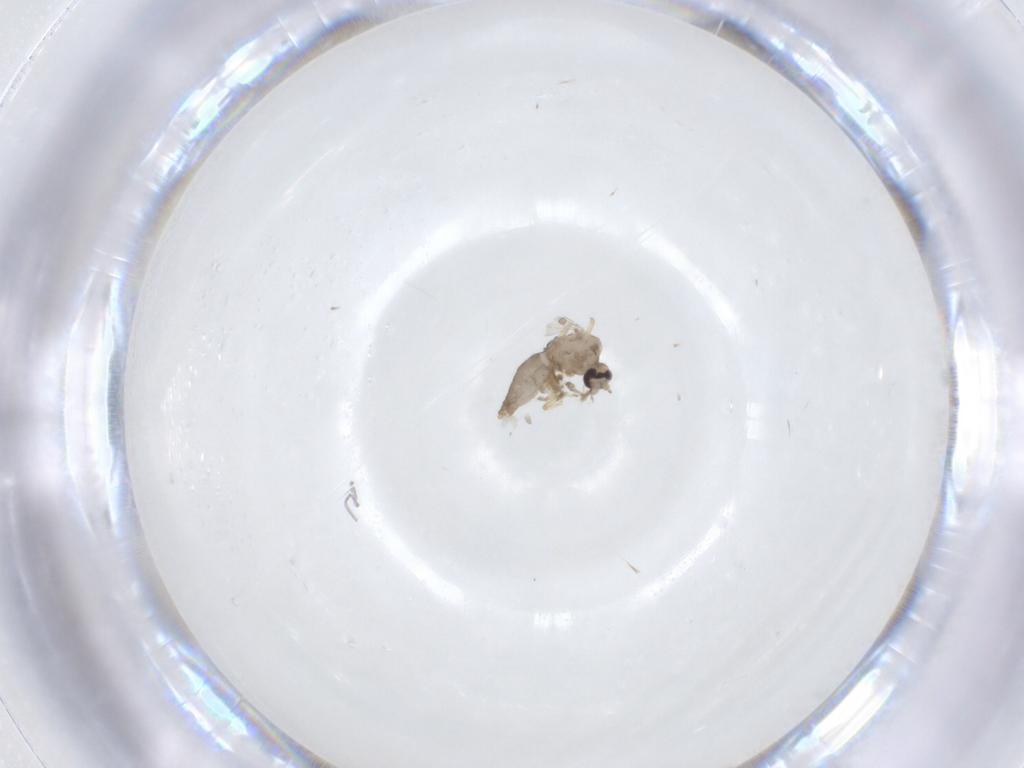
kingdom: Animalia
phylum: Arthropoda
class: Insecta
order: Diptera
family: Ceratopogonidae
